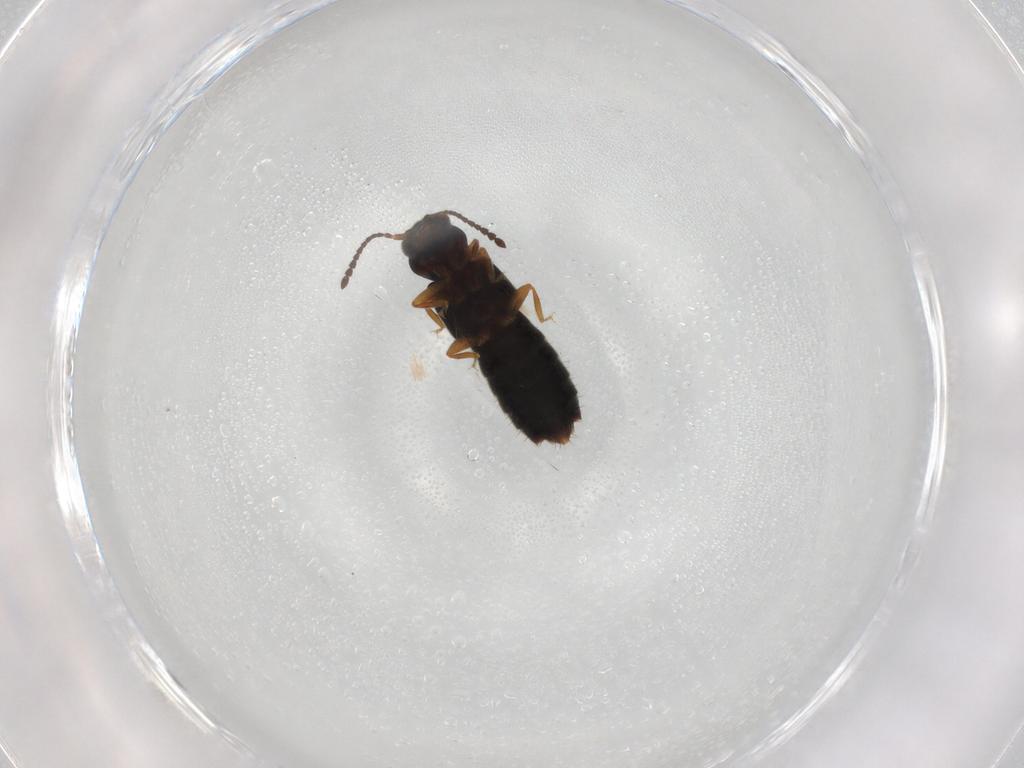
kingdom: Animalia
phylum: Arthropoda
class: Insecta
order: Coleoptera
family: Staphylinidae
